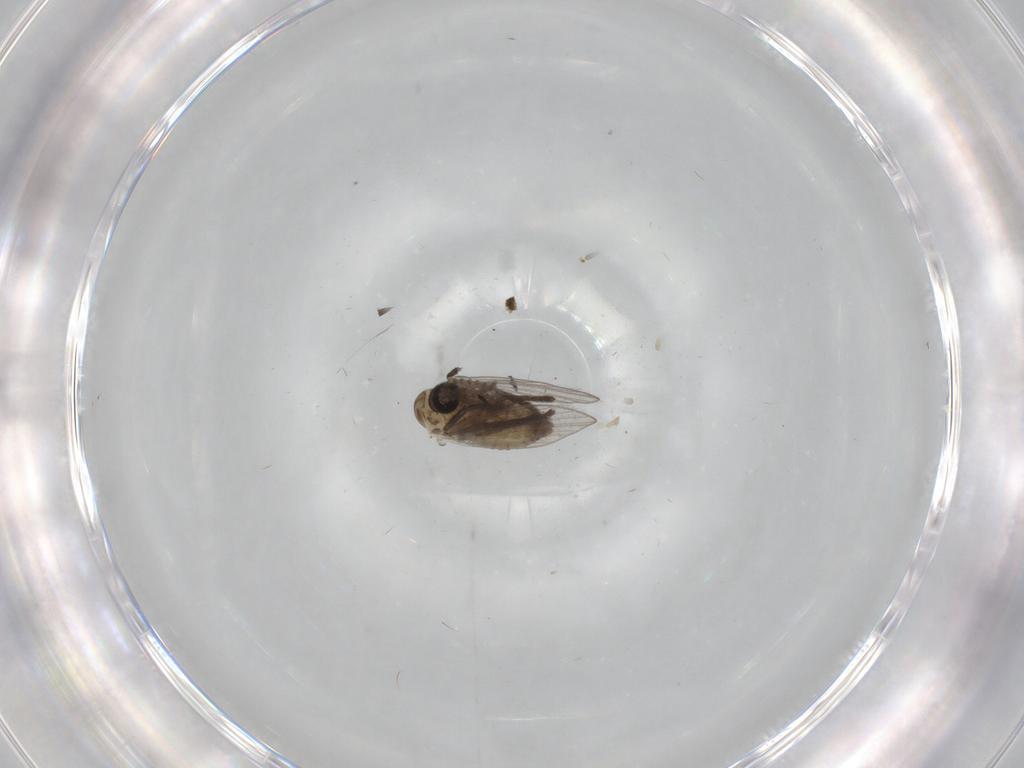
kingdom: Animalia
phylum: Arthropoda
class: Insecta
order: Diptera
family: Psychodidae
